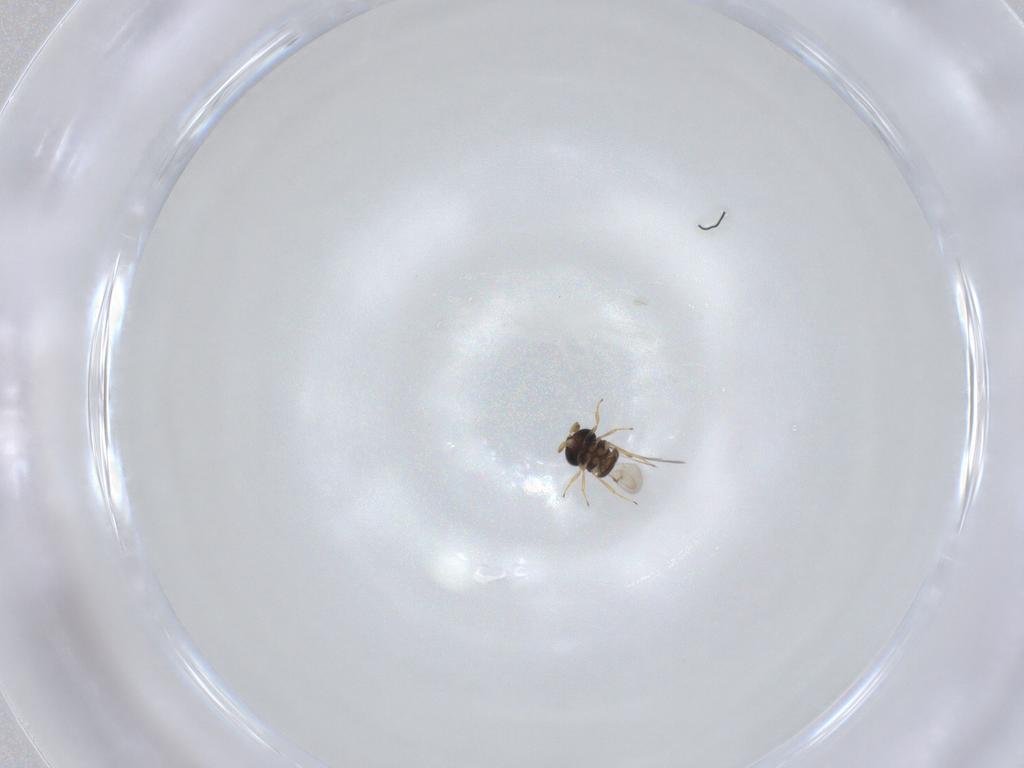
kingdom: Animalia
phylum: Arthropoda
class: Insecta
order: Hymenoptera
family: Scelionidae
